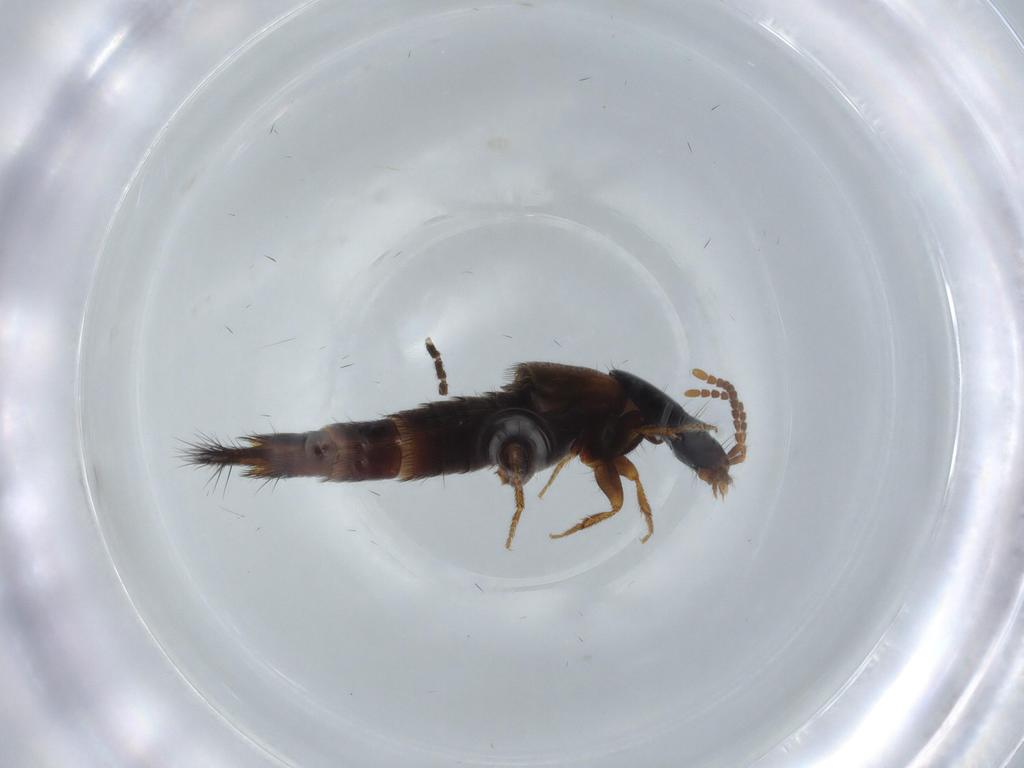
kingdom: Animalia
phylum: Arthropoda
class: Insecta
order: Coleoptera
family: Staphylinidae
